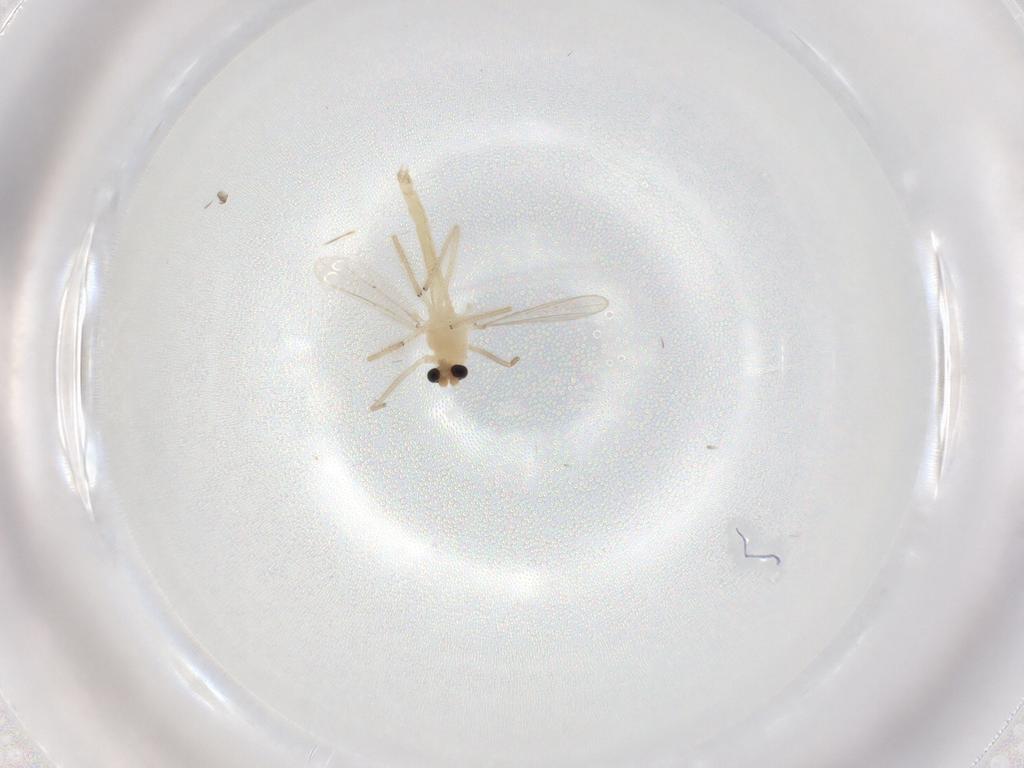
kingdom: Animalia
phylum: Arthropoda
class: Insecta
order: Diptera
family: Chironomidae
